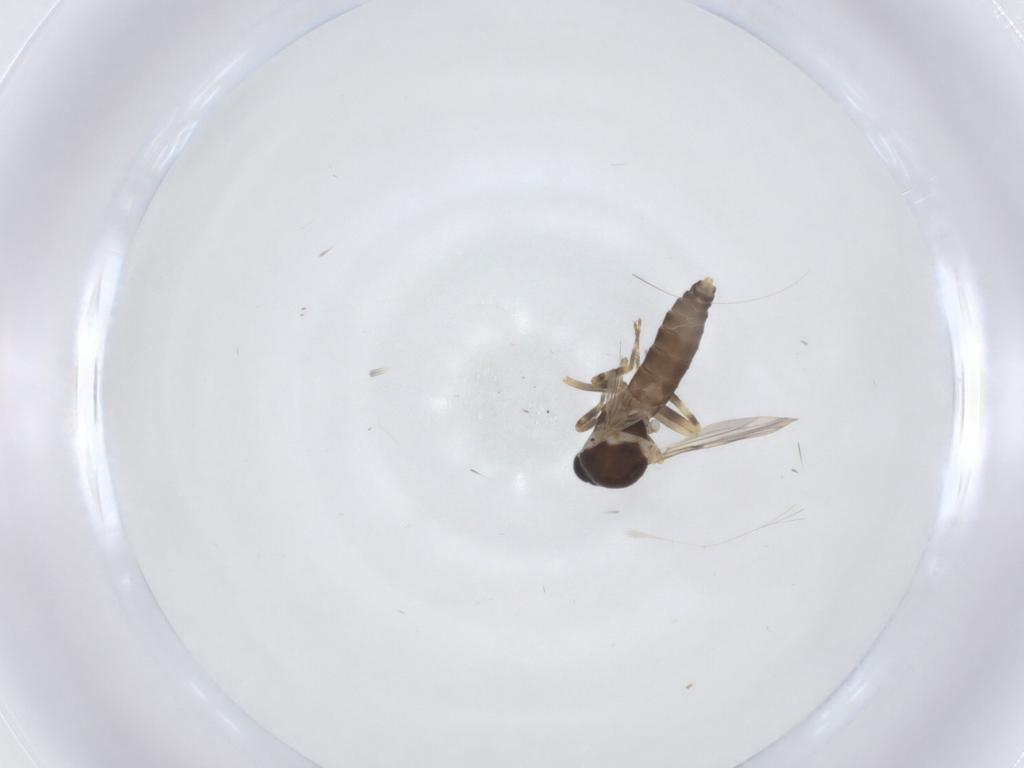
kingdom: Animalia
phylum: Arthropoda
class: Insecta
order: Diptera
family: Ceratopogonidae
